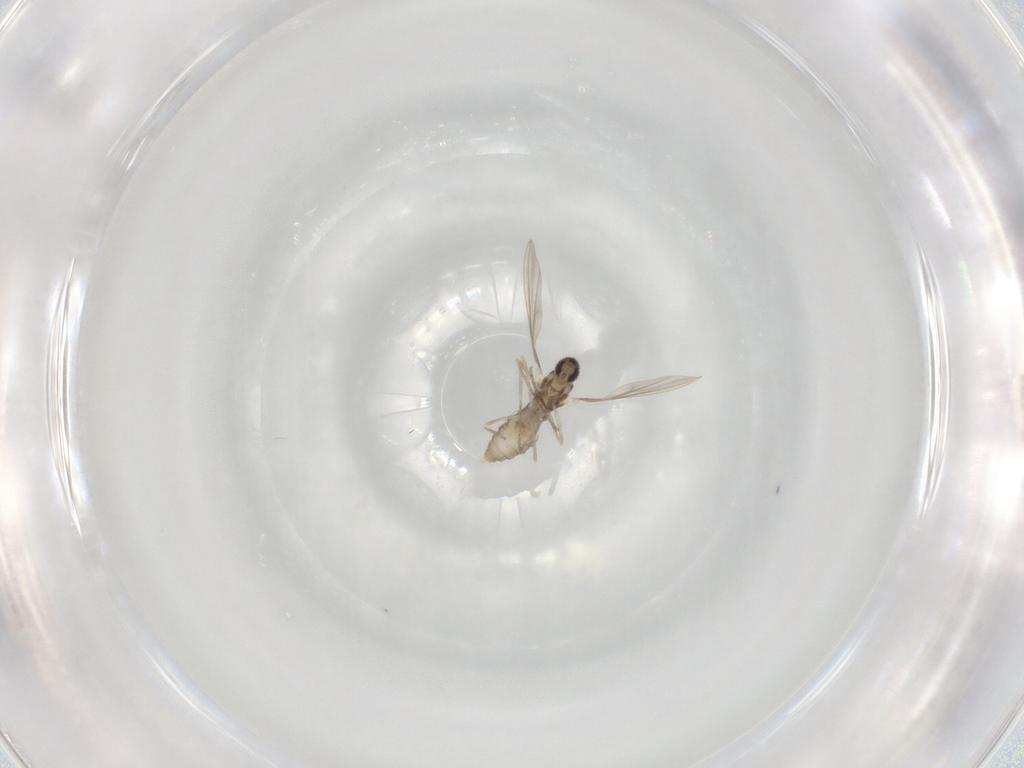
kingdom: Animalia
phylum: Arthropoda
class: Insecta
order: Diptera
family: Cecidomyiidae
